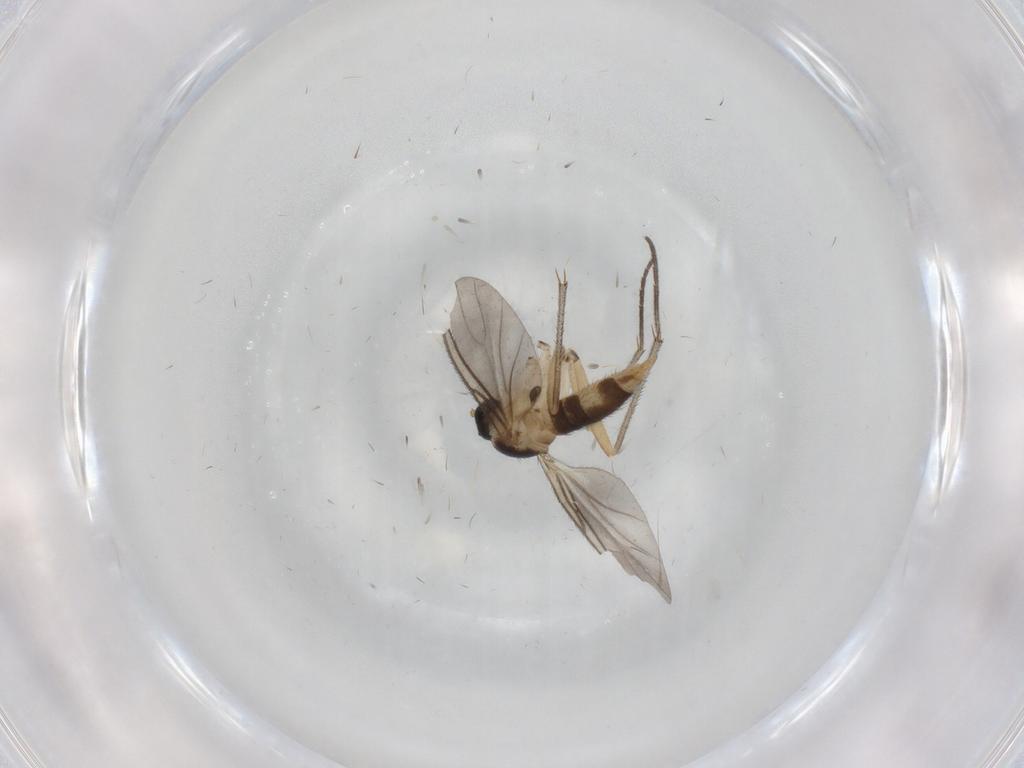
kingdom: Animalia
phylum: Arthropoda
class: Insecta
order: Diptera
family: Sciaridae
